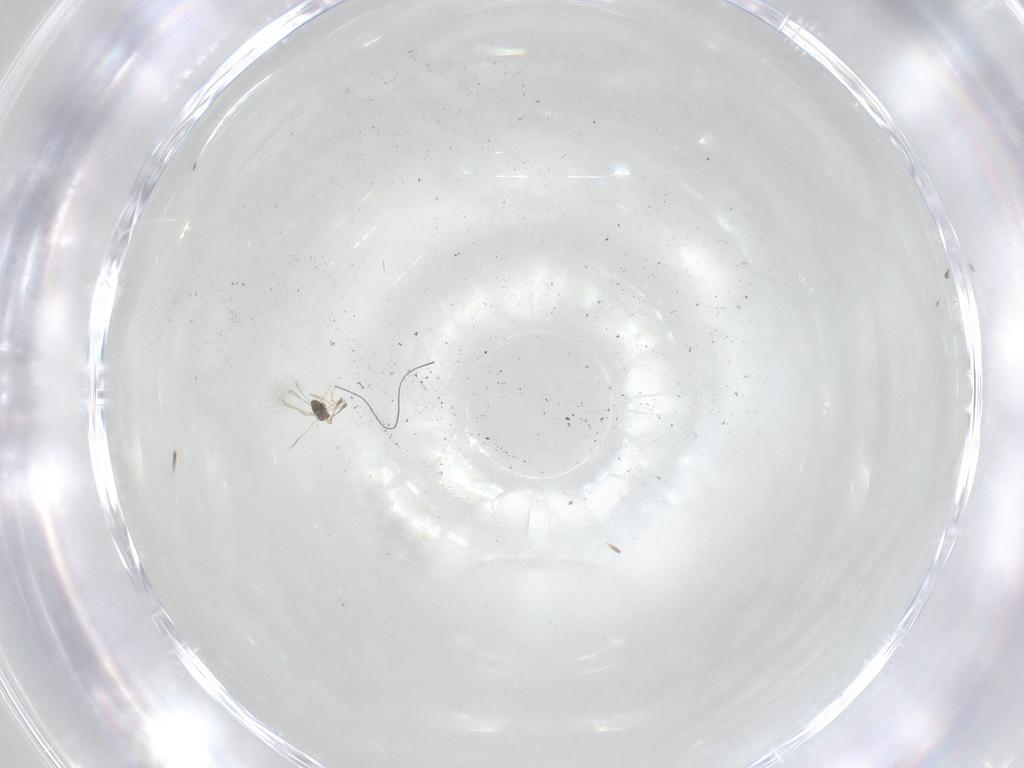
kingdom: Animalia
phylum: Arthropoda
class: Insecta
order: Hymenoptera
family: Mymaridae
